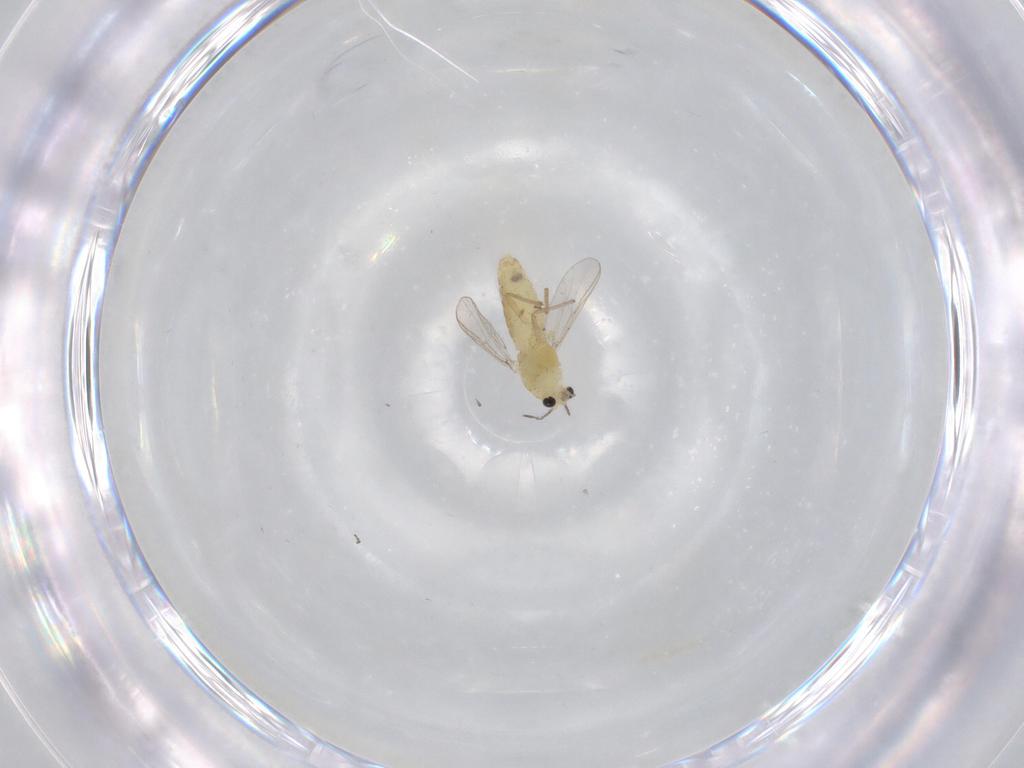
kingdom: Animalia
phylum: Arthropoda
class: Insecta
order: Diptera
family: Chironomidae
